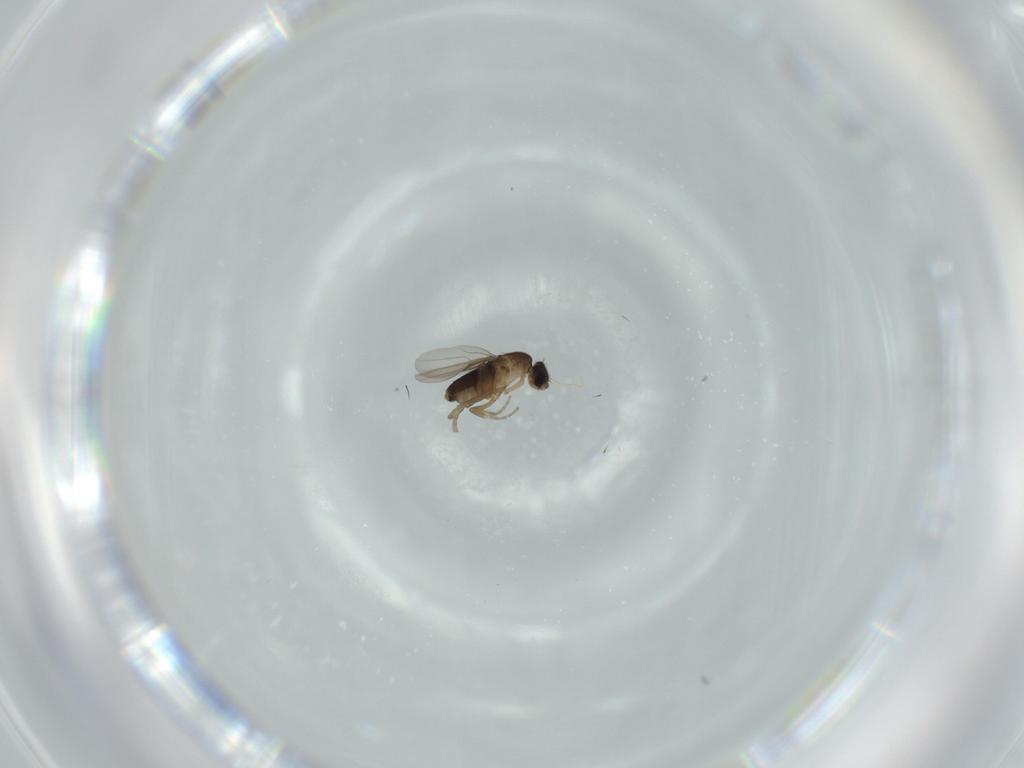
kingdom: Animalia
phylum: Arthropoda
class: Insecta
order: Diptera
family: Phoridae
